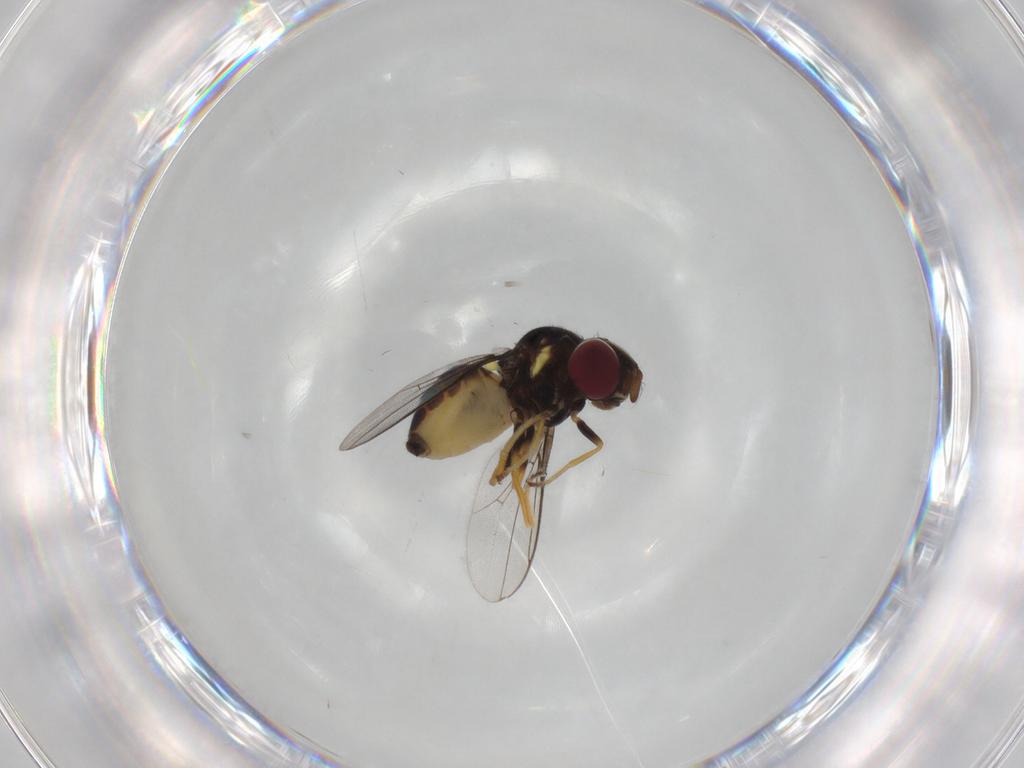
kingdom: Animalia
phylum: Arthropoda
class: Insecta
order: Diptera
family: Chloropidae
